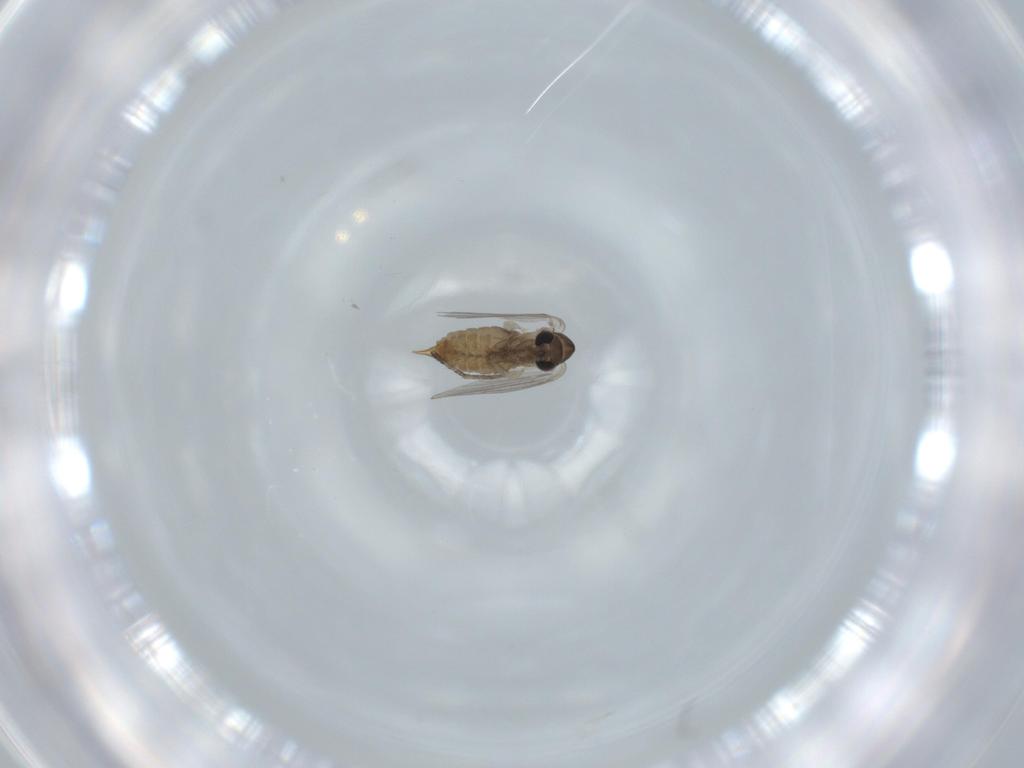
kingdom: Animalia
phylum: Arthropoda
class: Insecta
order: Diptera
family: Psychodidae
